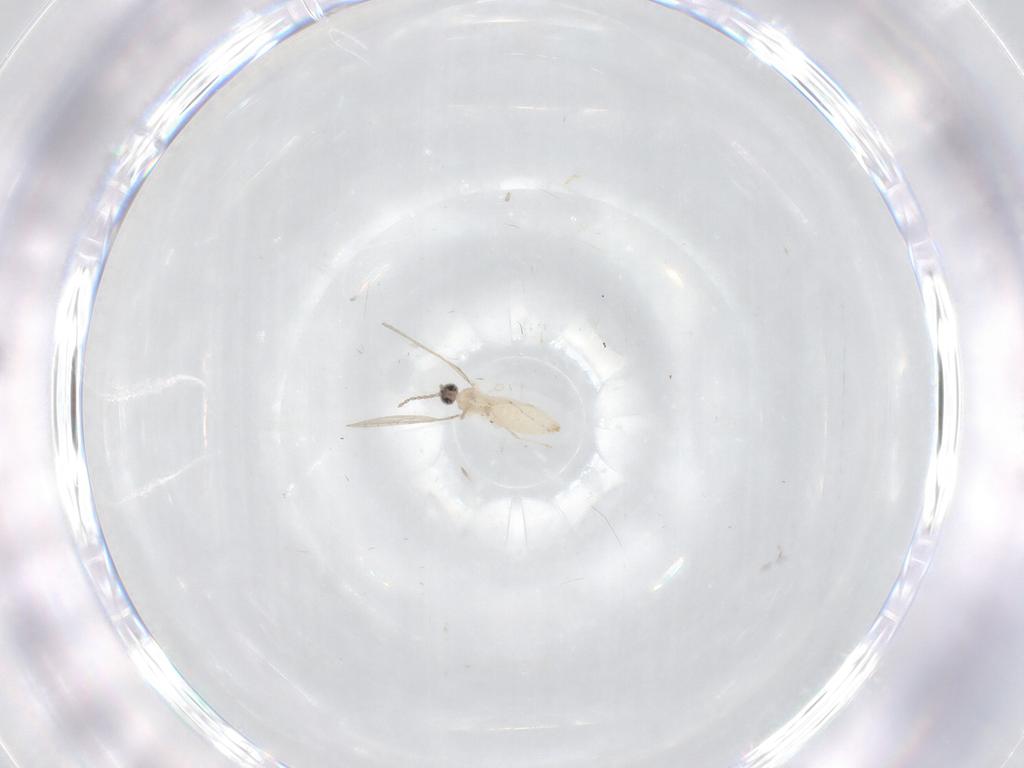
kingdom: Animalia
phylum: Arthropoda
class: Insecta
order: Diptera
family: Cecidomyiidae
